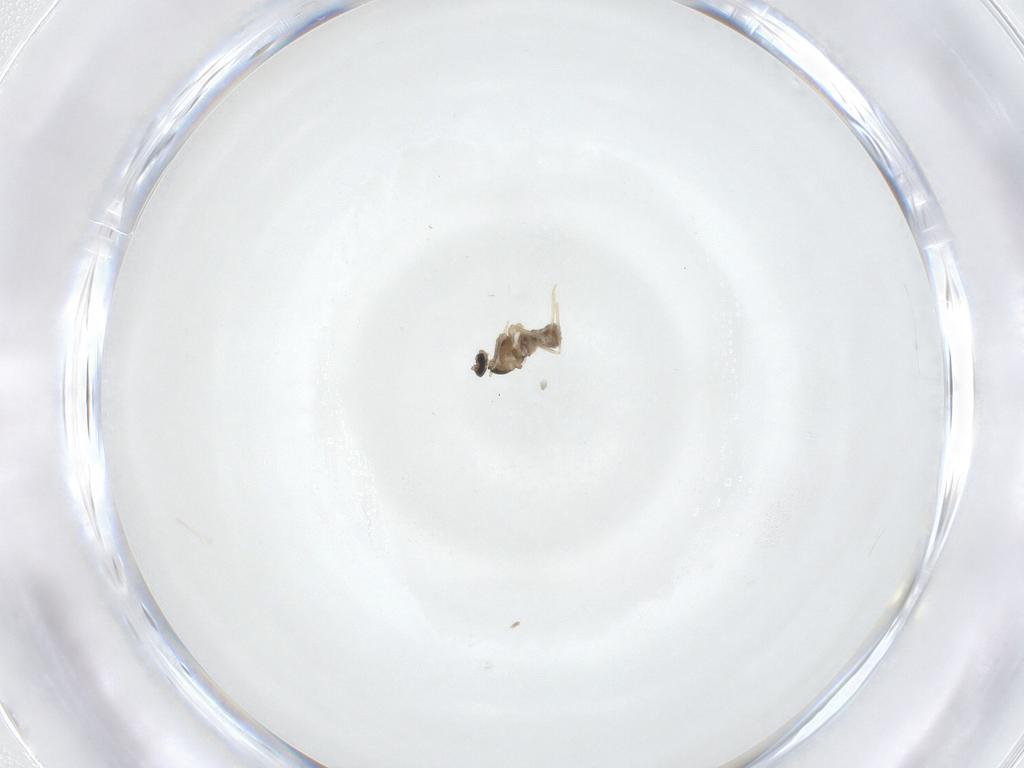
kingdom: Animalia
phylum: Arthropoda
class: Insecta
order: Diptera
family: Cecidomyiidae
